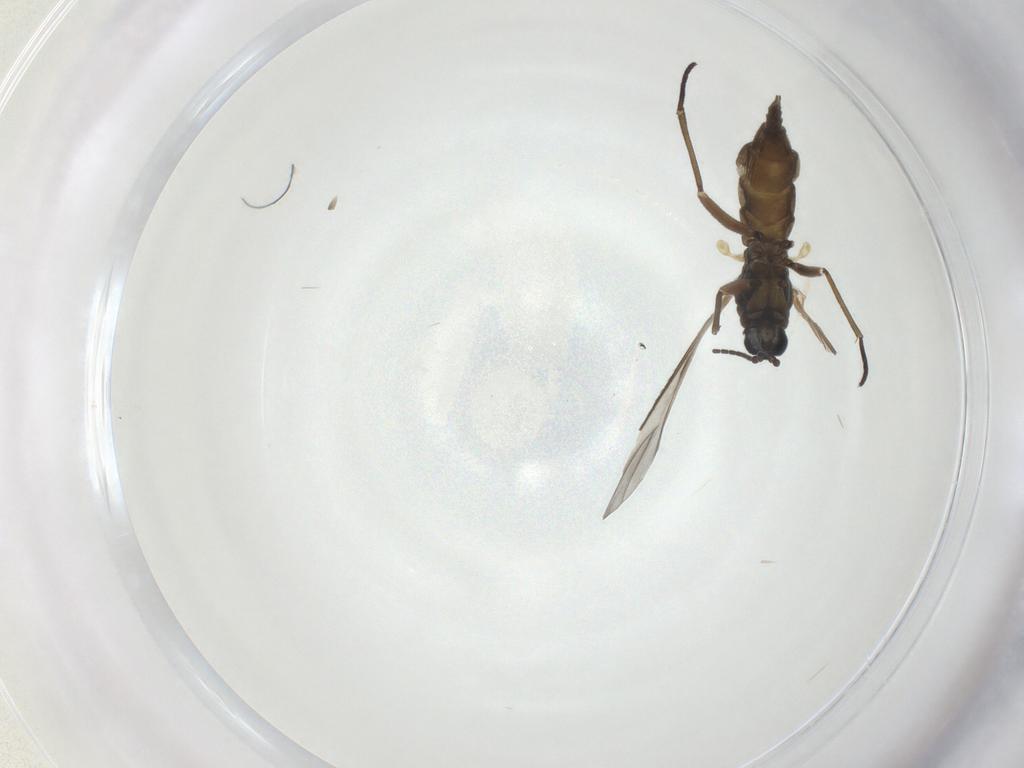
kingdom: Animalia
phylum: Arthropoda
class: Insecta
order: Diptera
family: Sciaridae
